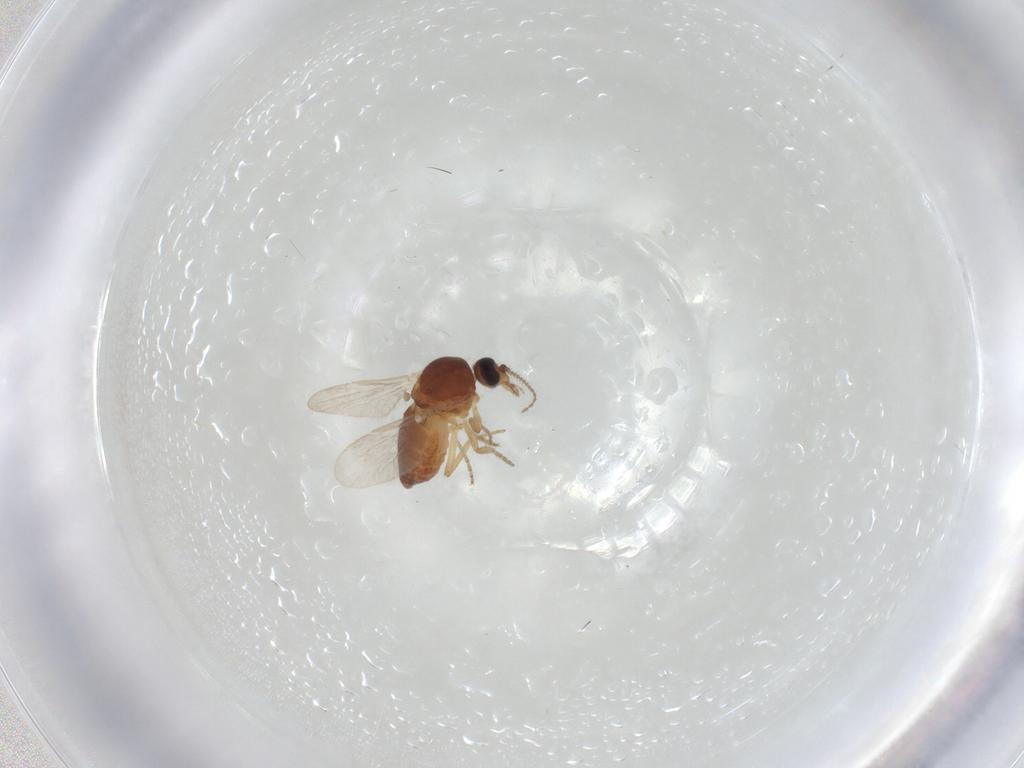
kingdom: Animalia
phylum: Arthropoda
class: Insecta
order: Diptera
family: Ceratopogonidae
